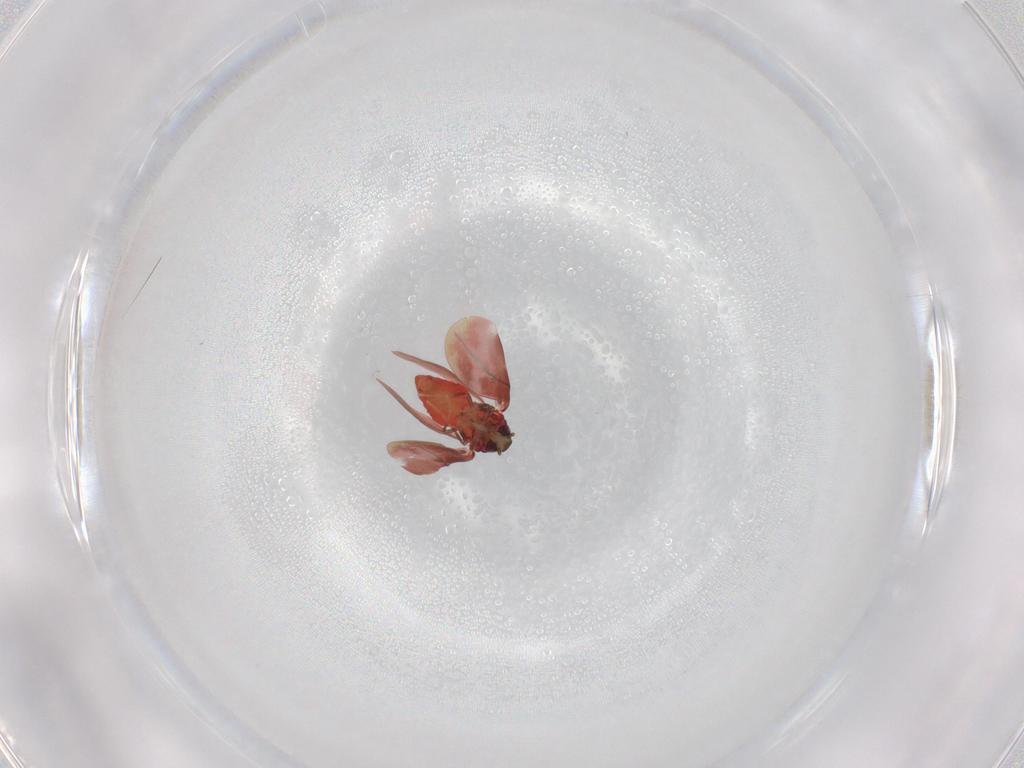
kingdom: Animalia
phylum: Arthropoda
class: Insecta
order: Hemiptera
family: Aleyrodidae
